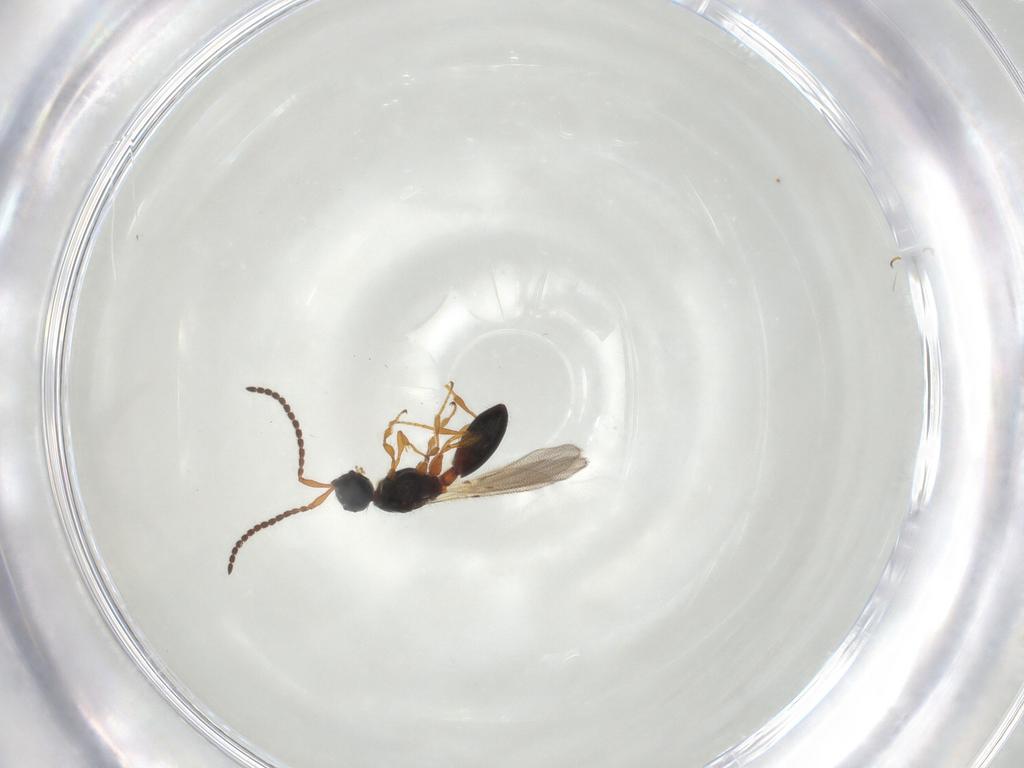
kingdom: Animalia
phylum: Arthropoda
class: Insecta
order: Hymenoptera
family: Diapriidae
